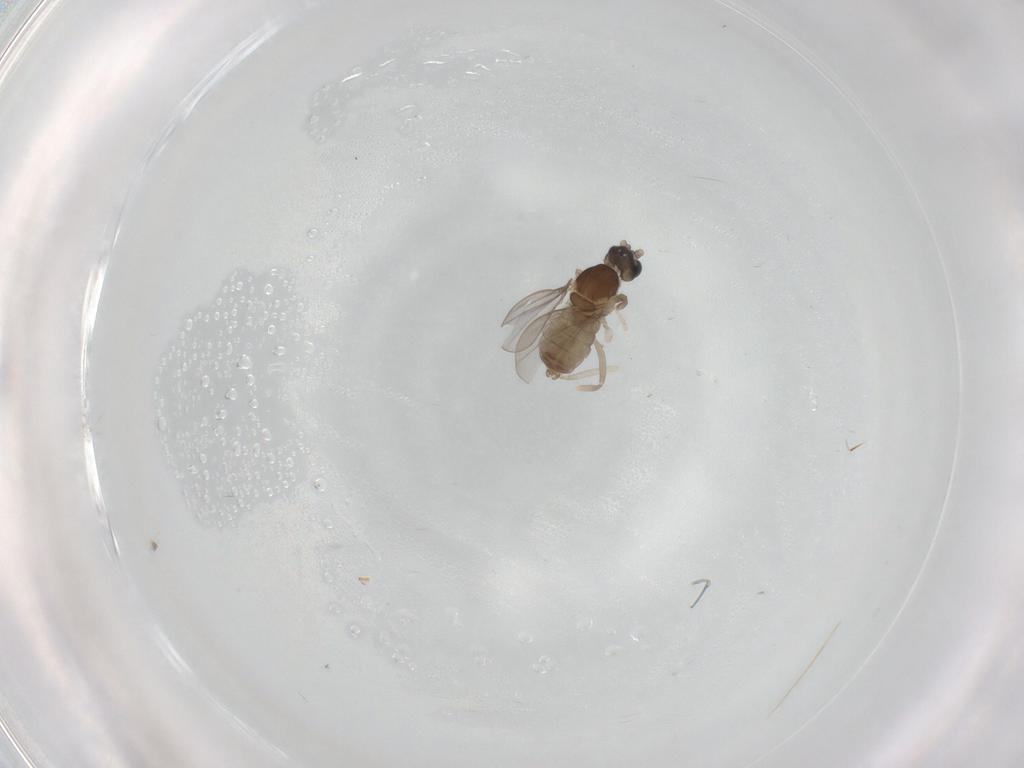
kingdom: Animalia
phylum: Arthropoda
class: Insecta
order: Diptera
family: Cecidomyiidae
